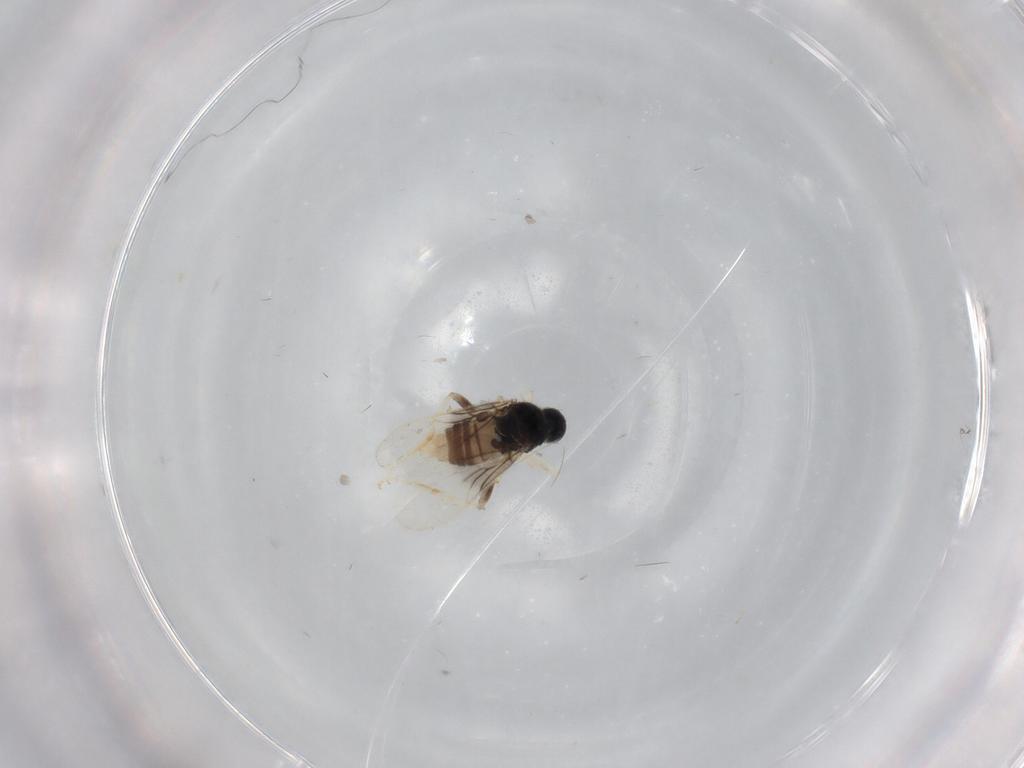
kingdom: Animalia
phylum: Arthropoda
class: Insecta
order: Diptera
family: Hybotidae
